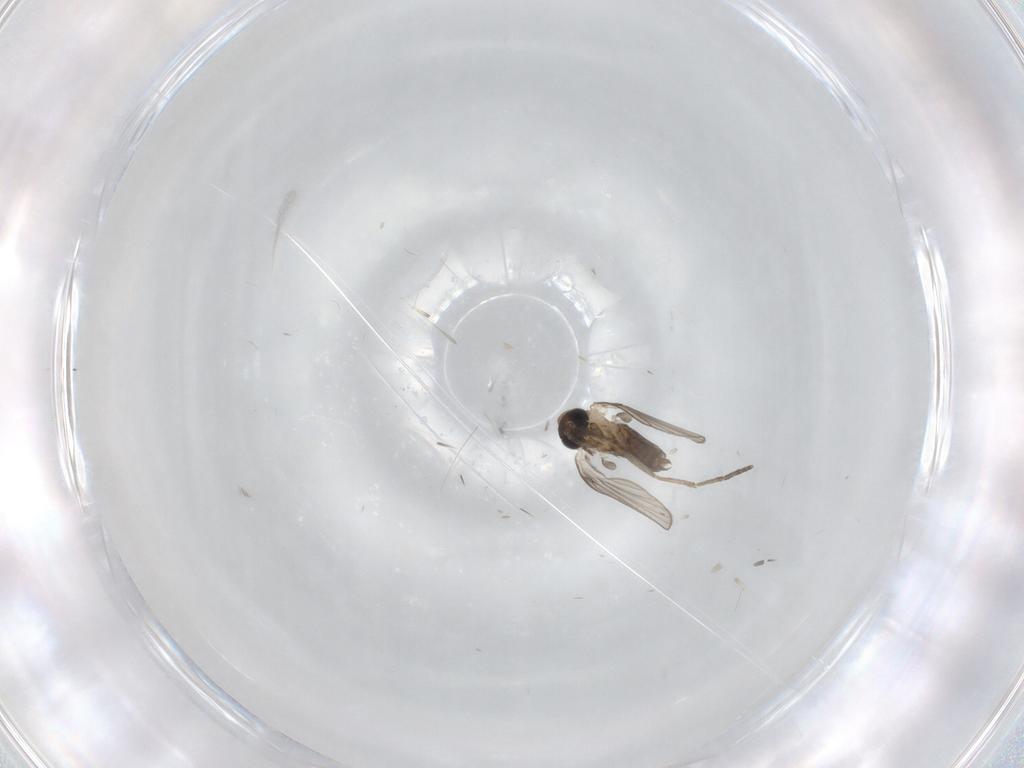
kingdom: Animalia
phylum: Arthropoda
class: Insecta
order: Diptera
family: Psychodidae
